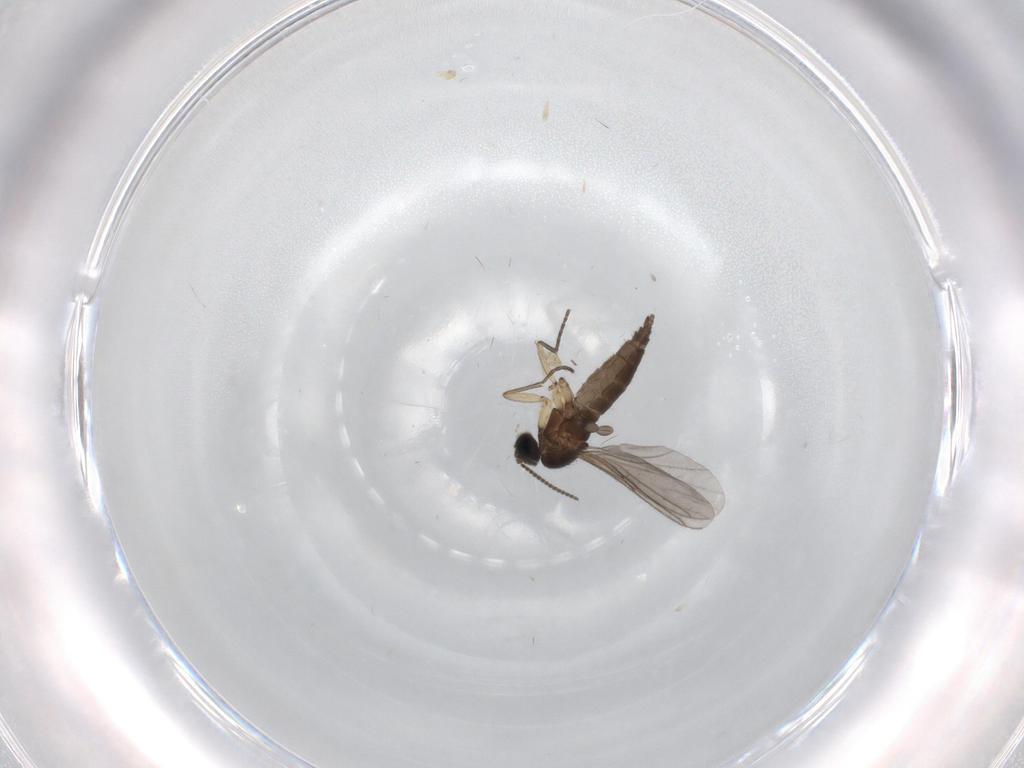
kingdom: Animalia
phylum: Arthropoda
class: Insecta
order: Diptera
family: Sciaridae
